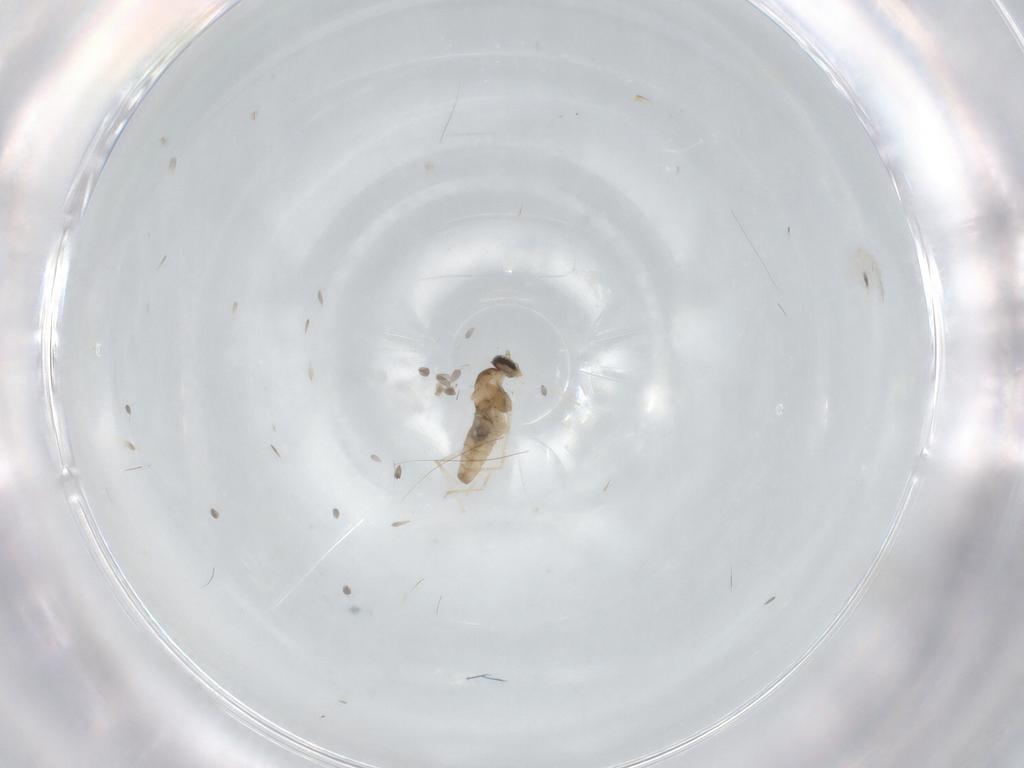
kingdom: Animalia
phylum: Arthropoda
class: Insecta
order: Diptera
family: Cecidomyiidae
